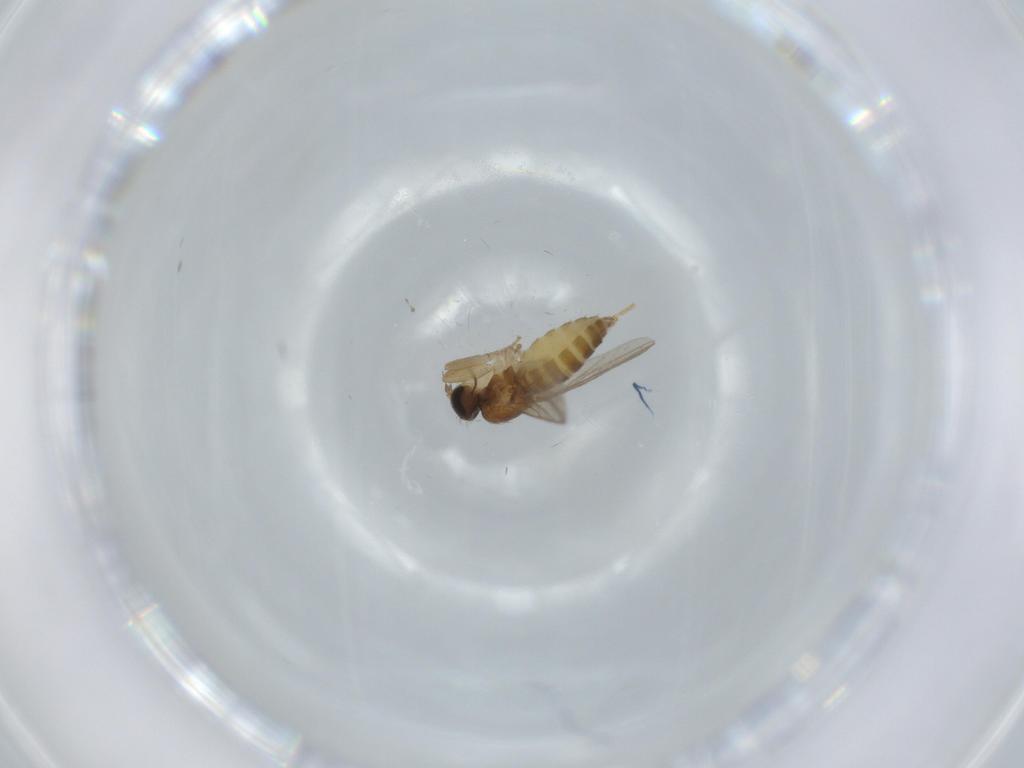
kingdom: Animalia
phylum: Arthropoda
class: Insecta
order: Diptera
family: Hybotidae
